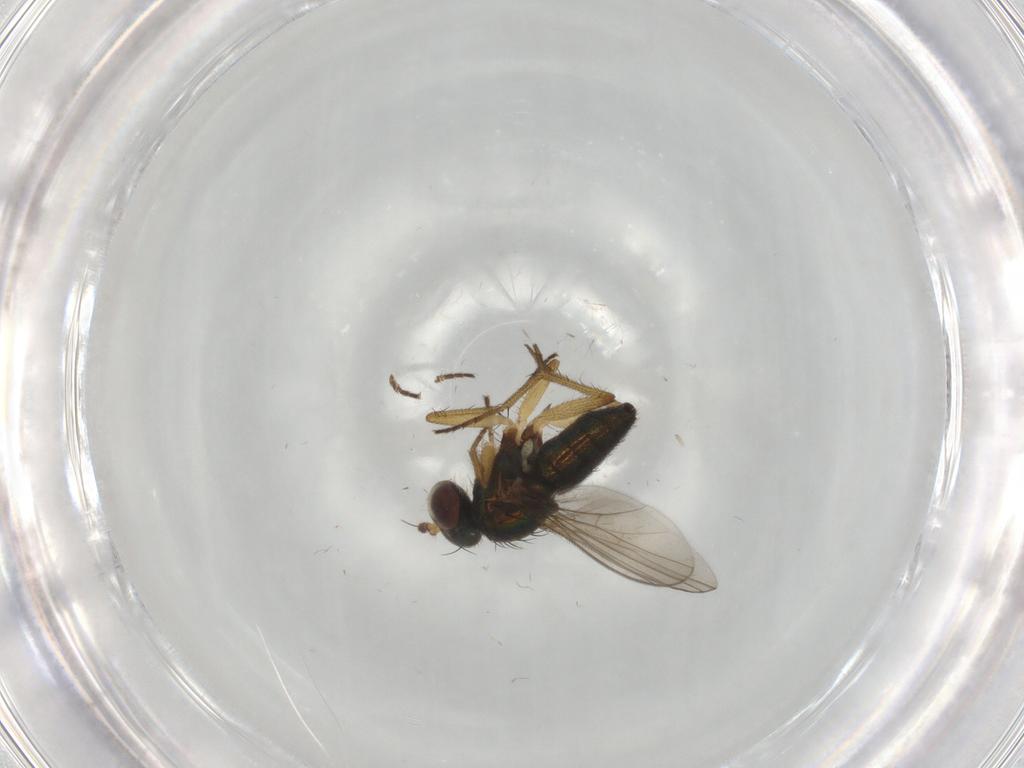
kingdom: Animalia
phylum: Arthropoda
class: Insecta
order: Diptera
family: Dolichopodidae
